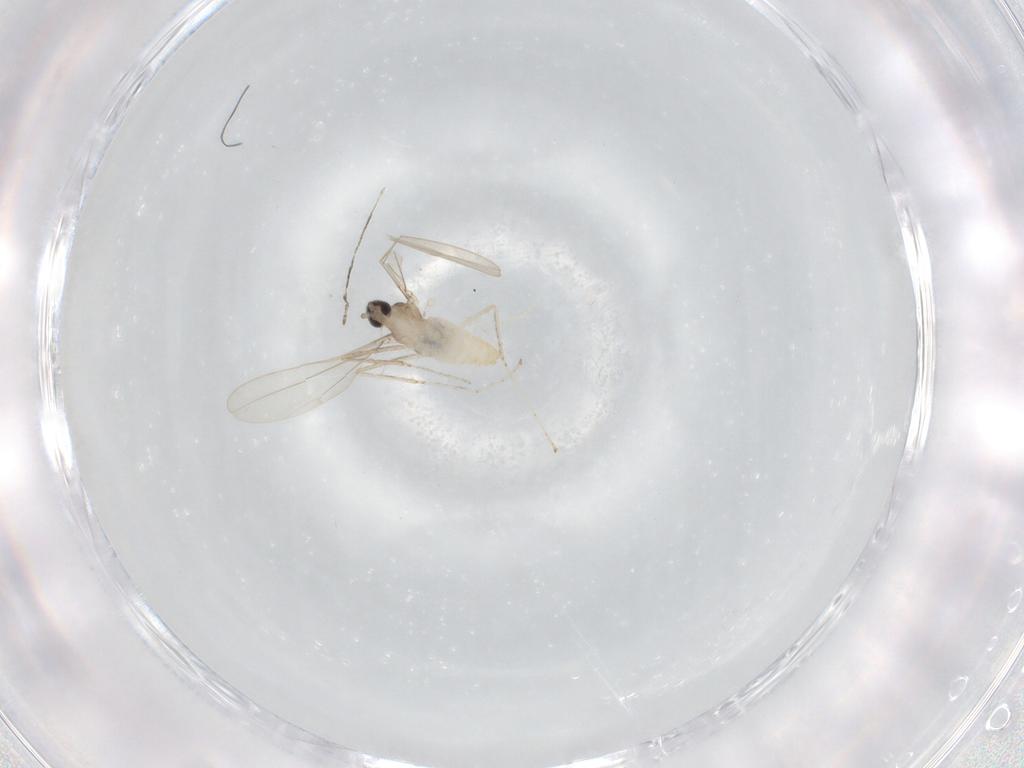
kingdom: Animalia
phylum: Arthropoda
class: Insecta
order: Diptera
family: Cecidomyiidae
